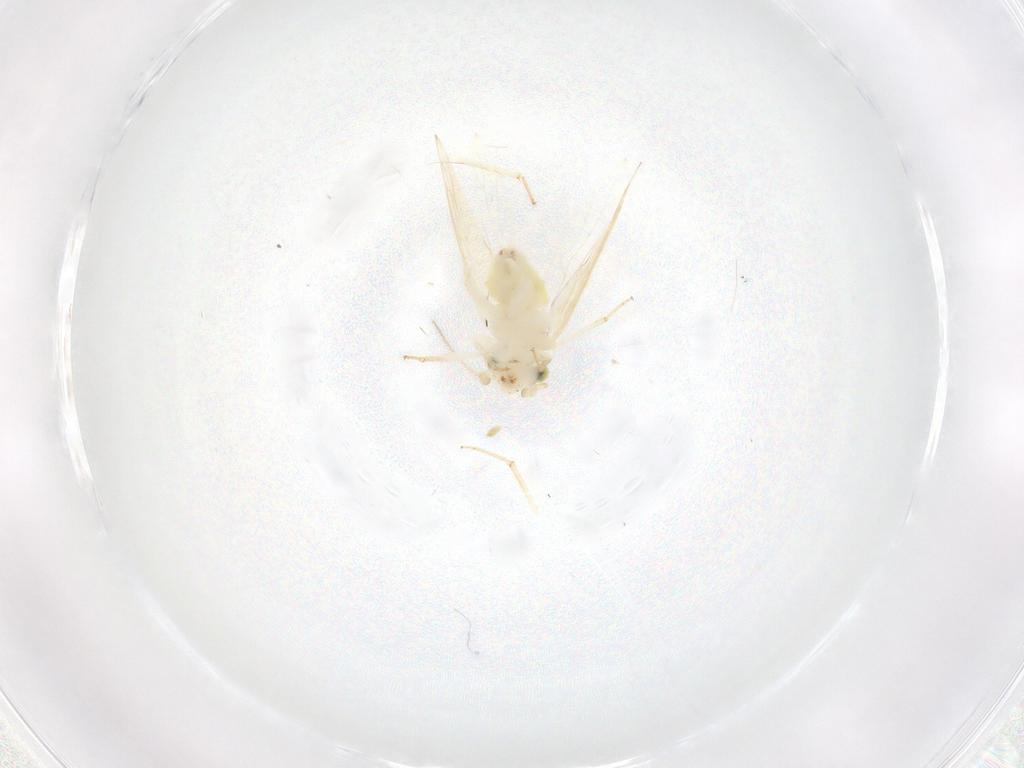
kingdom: Animalia
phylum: Arthropoda
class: Insecta
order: Psocodea
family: Lepidopsocidae
